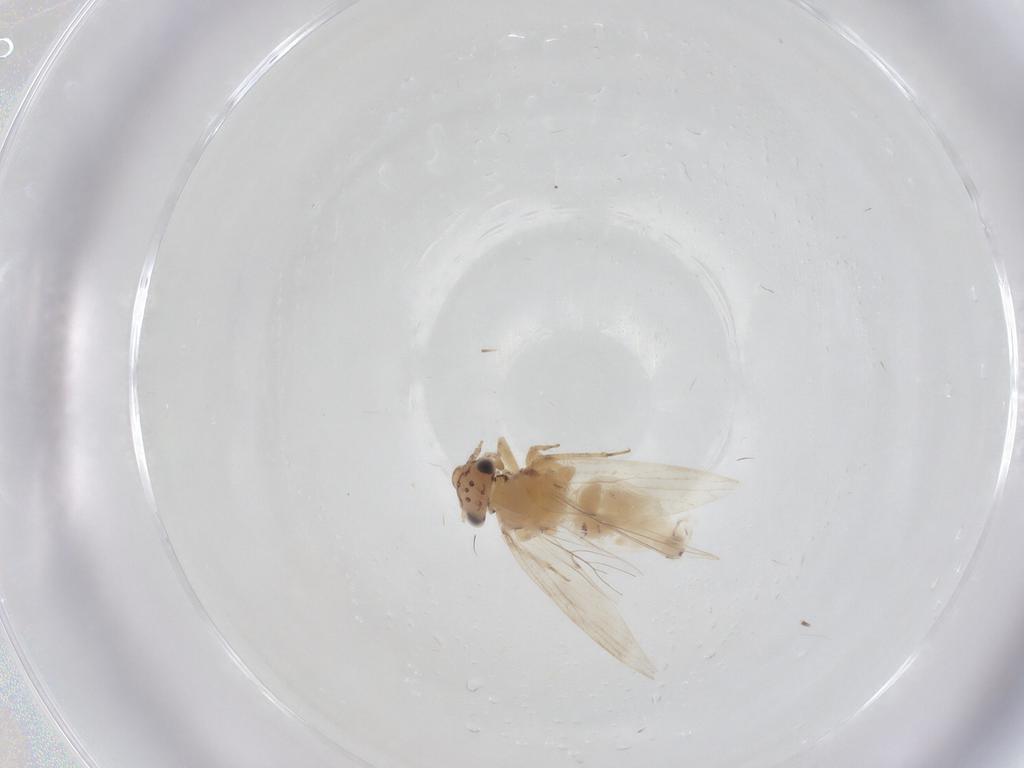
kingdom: Animalia
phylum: Arthropoda
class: Insecta
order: Psocodea
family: Lepidopsocidae
